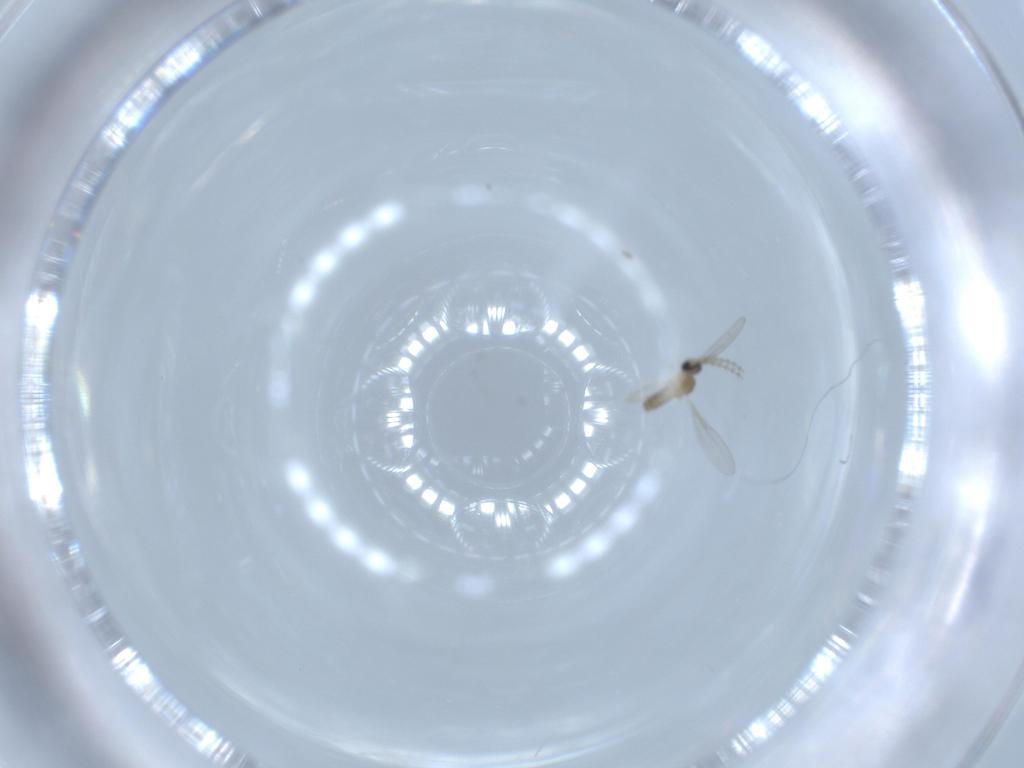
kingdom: Animalia
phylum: Arthropoda
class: Insecta
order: Diptera
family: Cecidomyiidae
